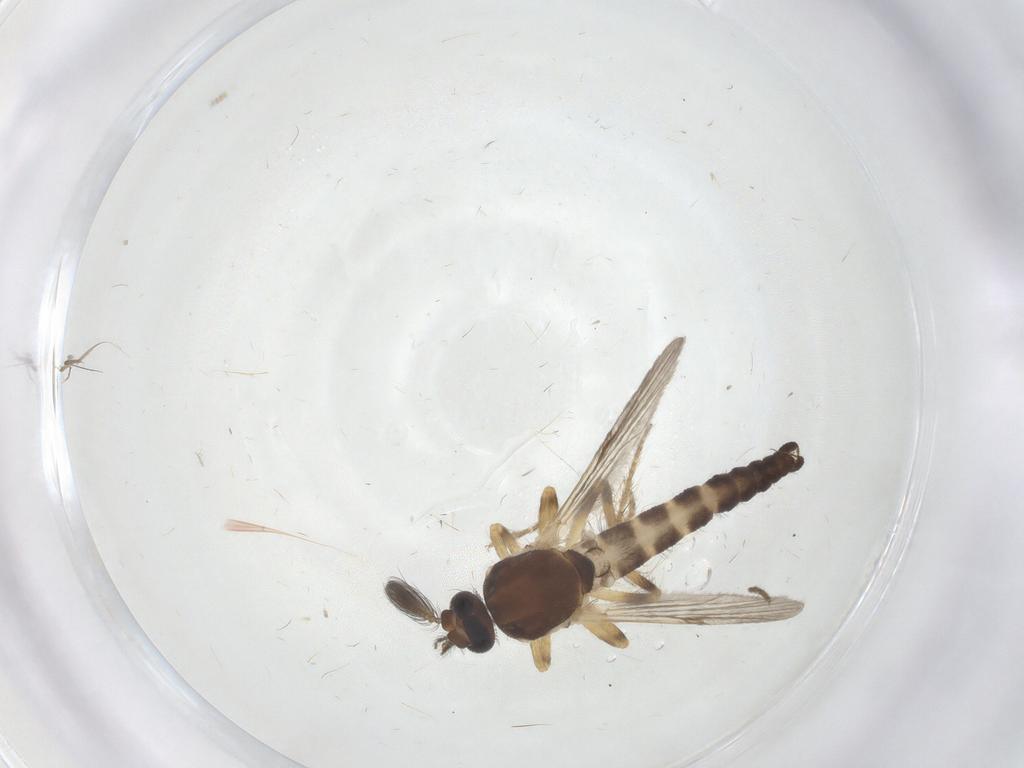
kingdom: Animalia
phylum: Arthropoda
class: Insecta
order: Diptera
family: Ceratopogonidae
